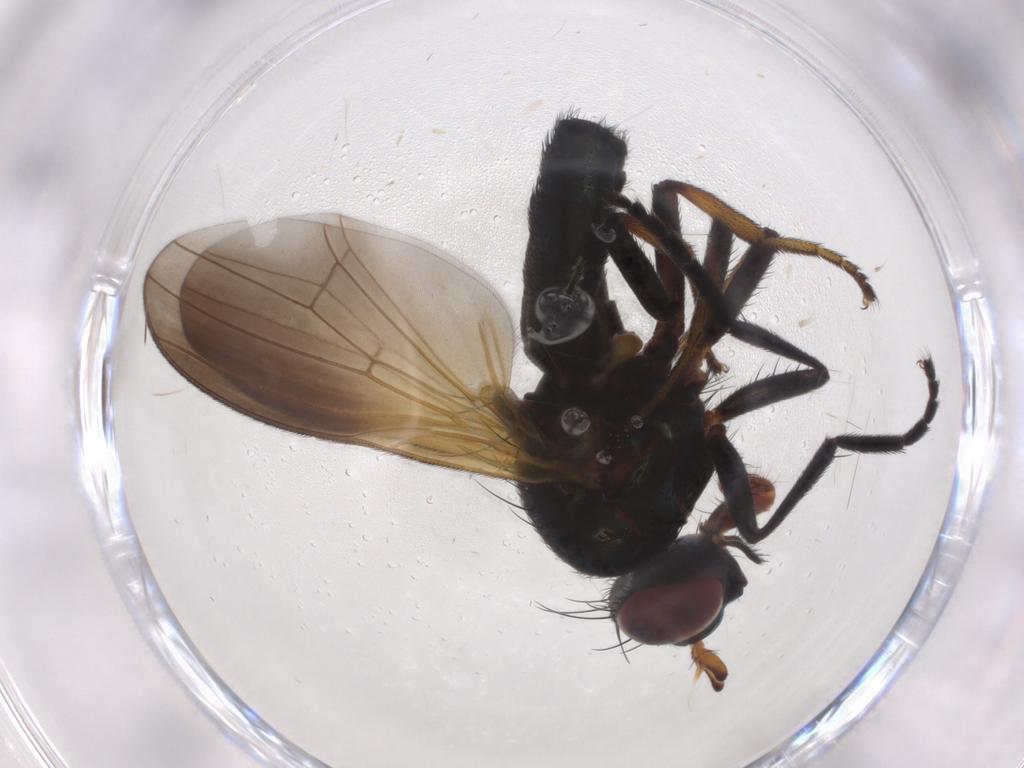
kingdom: Animalia
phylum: Arthropoda
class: Insecta
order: Diptera
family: Lauxaniidae
